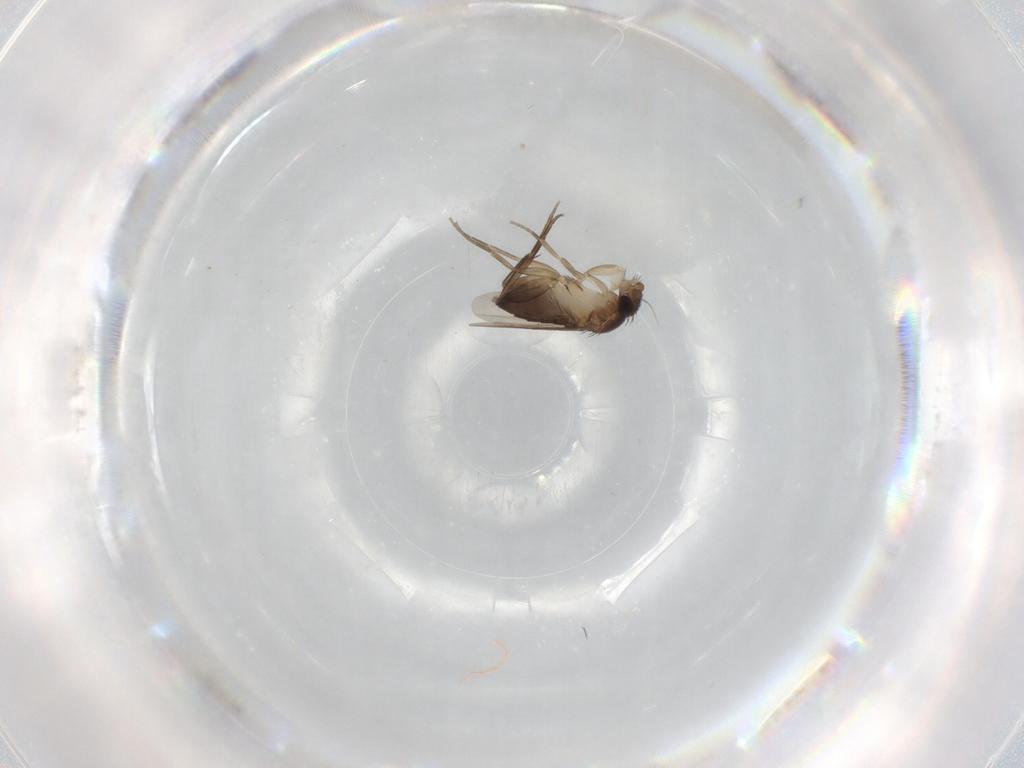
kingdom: Animalia
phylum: Arthropoda
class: Insecta
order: Diptera
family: Phoridae
